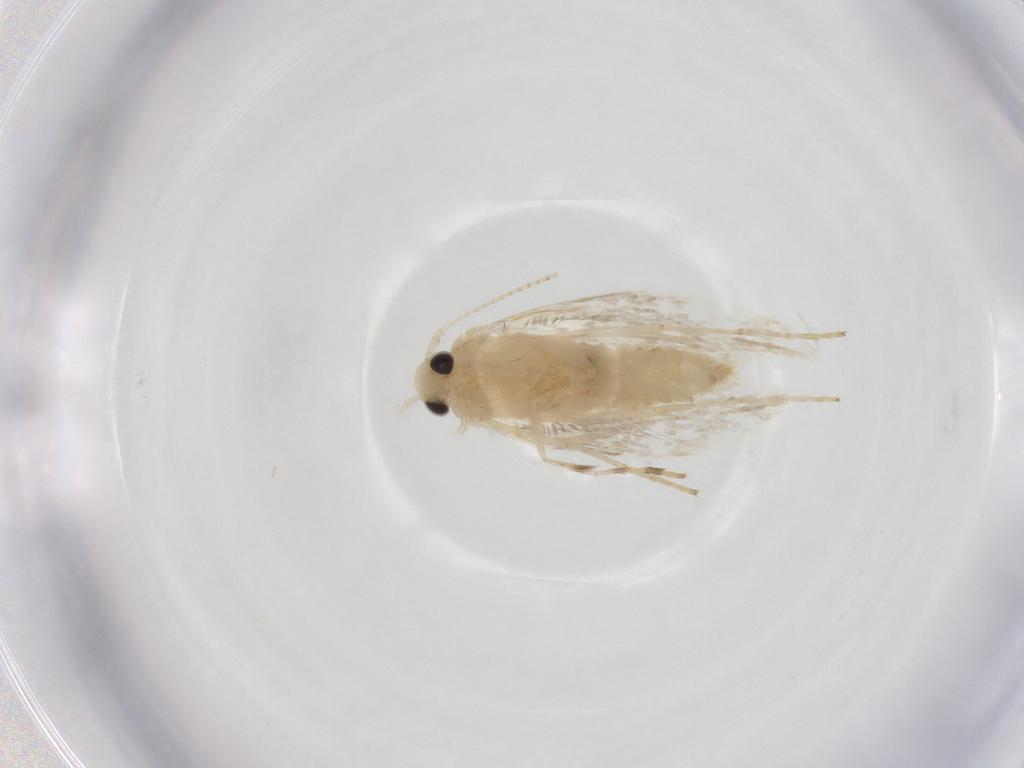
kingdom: Animalia
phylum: Arthropoda
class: Insecta
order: Lepidoptera
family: Gracillariidae
